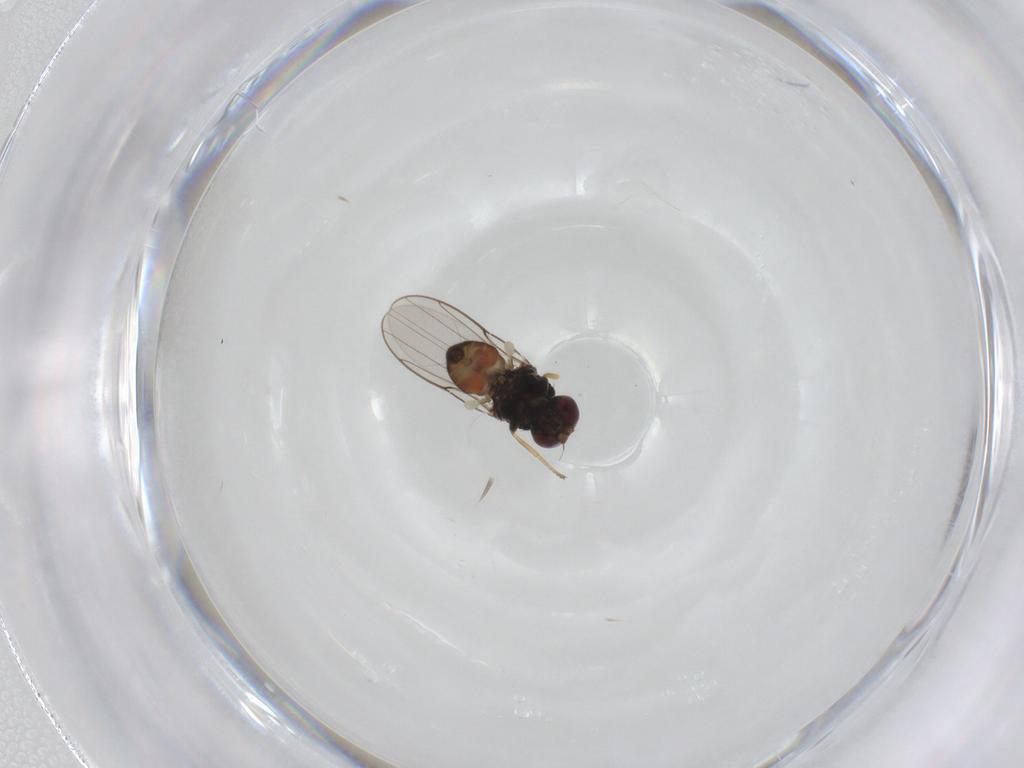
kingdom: Animalia
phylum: Arthropoda
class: Insecta
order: Diptera
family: Chloropidae
